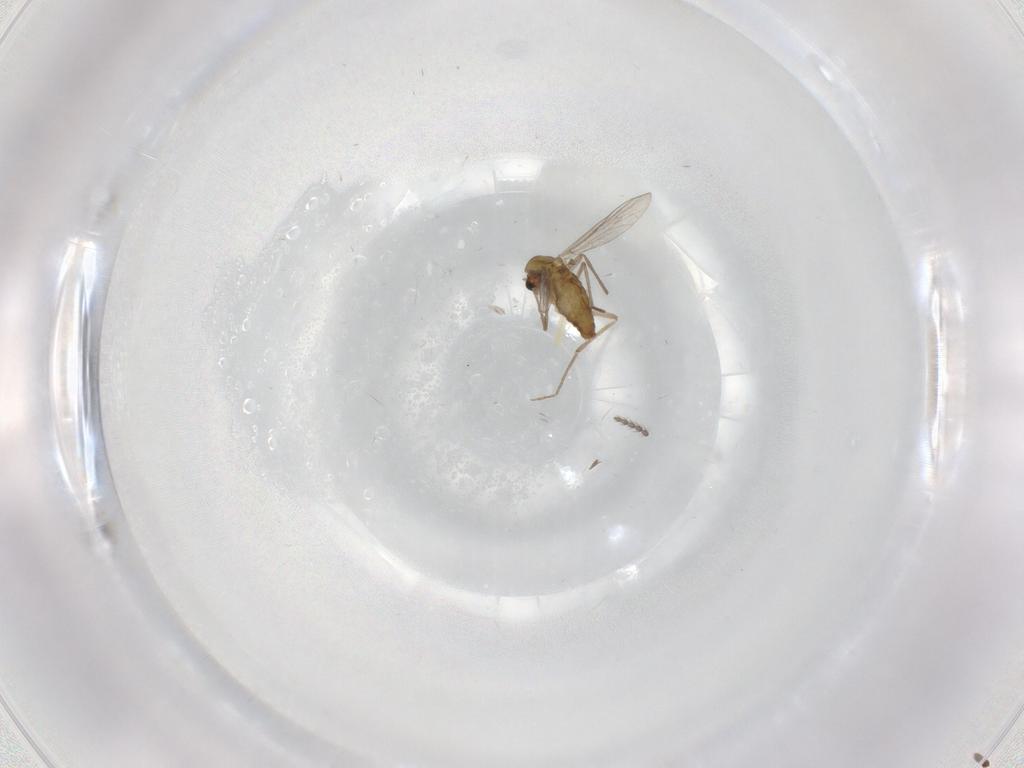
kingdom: Animalia
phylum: Arthropoda
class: Insecta
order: Diptera
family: Chironomidae
